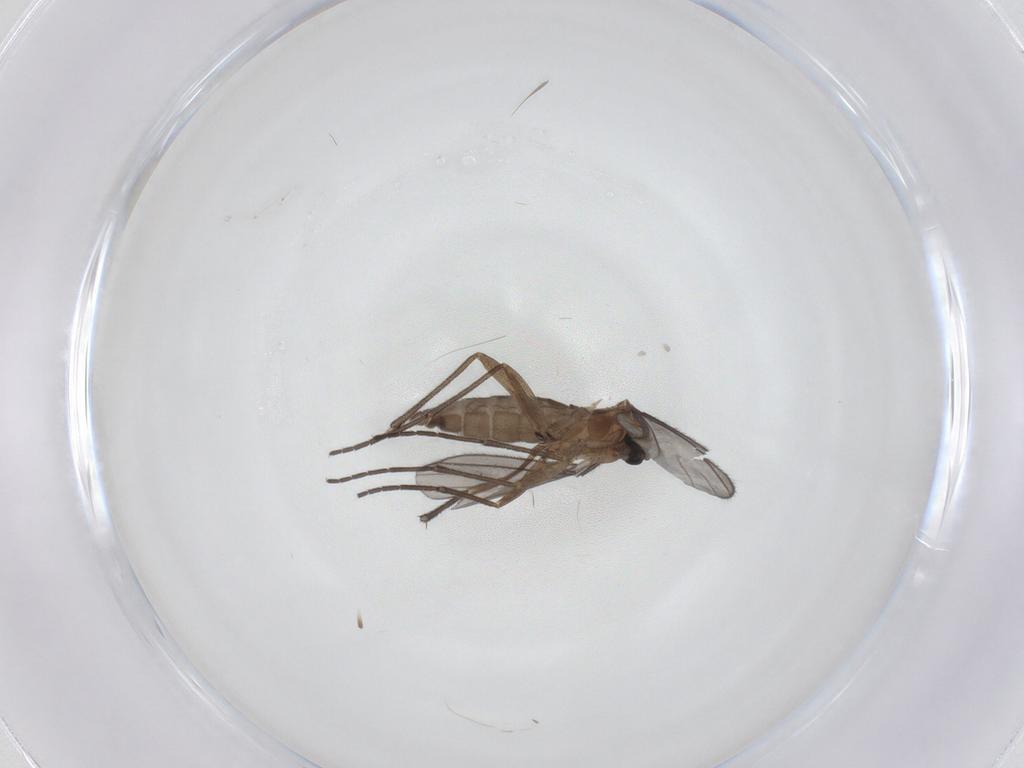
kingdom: Animalia
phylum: Arthropoda
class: Insecta
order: Diptera
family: Sciaridae
